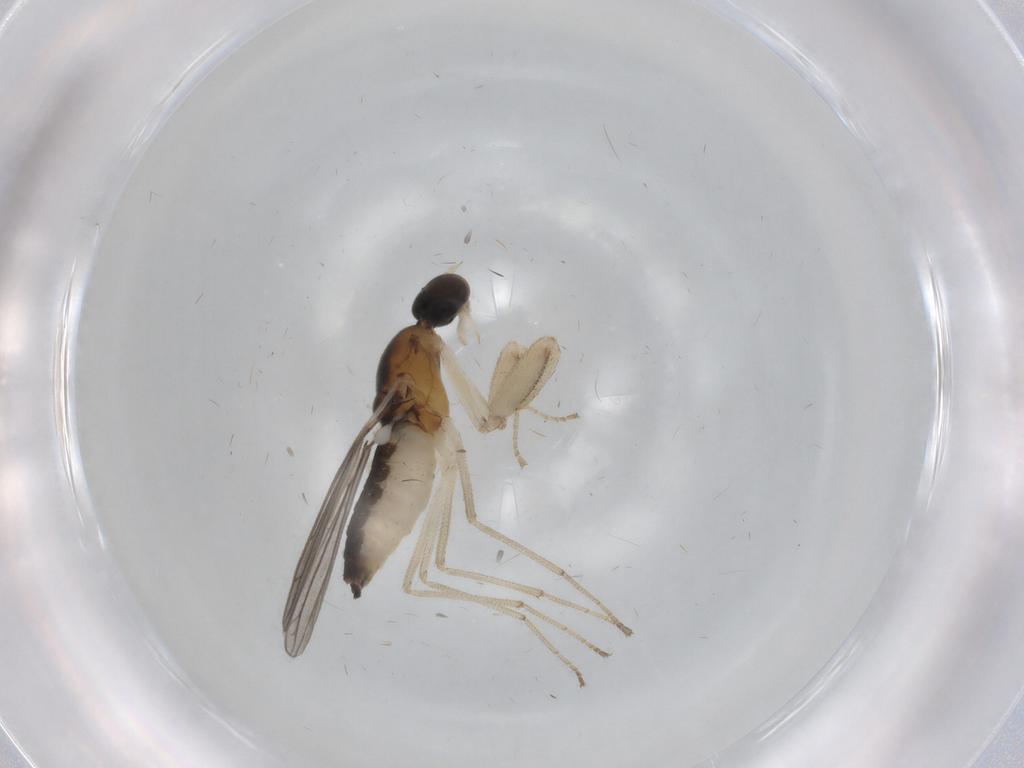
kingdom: Animalia
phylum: Arthropoda
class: Insecta
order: Diptera
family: Empididae
